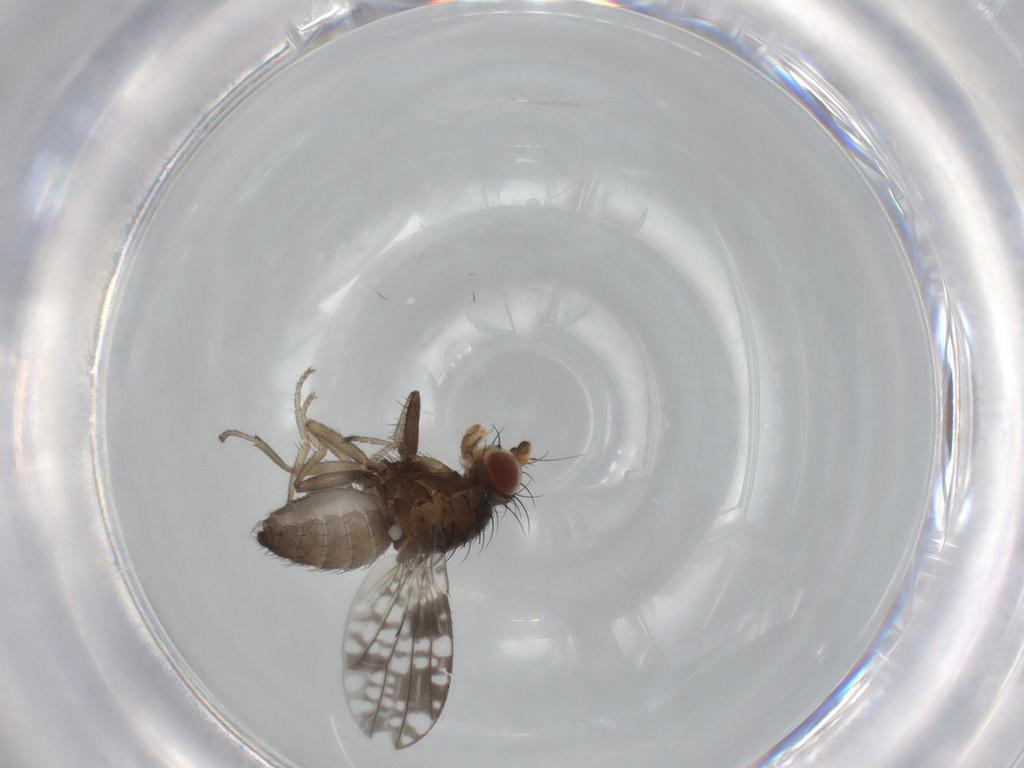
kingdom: Animalia
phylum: Arthropoda
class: Insecta
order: Diptera
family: Tephritidae
